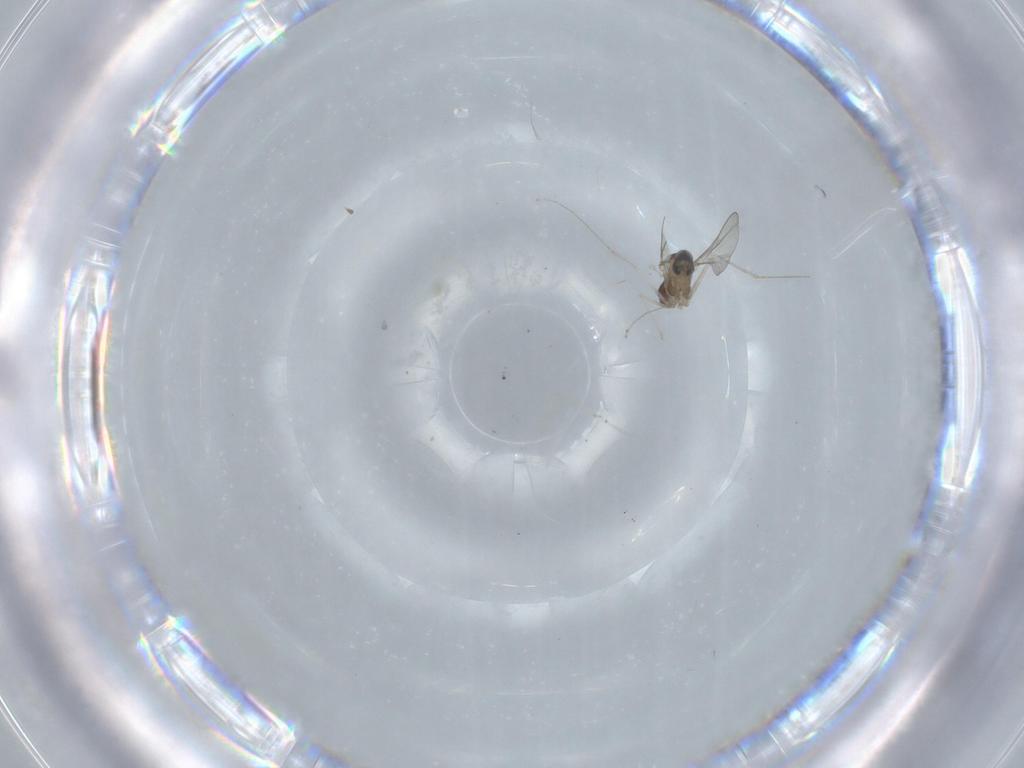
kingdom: Animalia
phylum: Arthropoda
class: Insecta
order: Diptera
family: Cecidomyiidae
